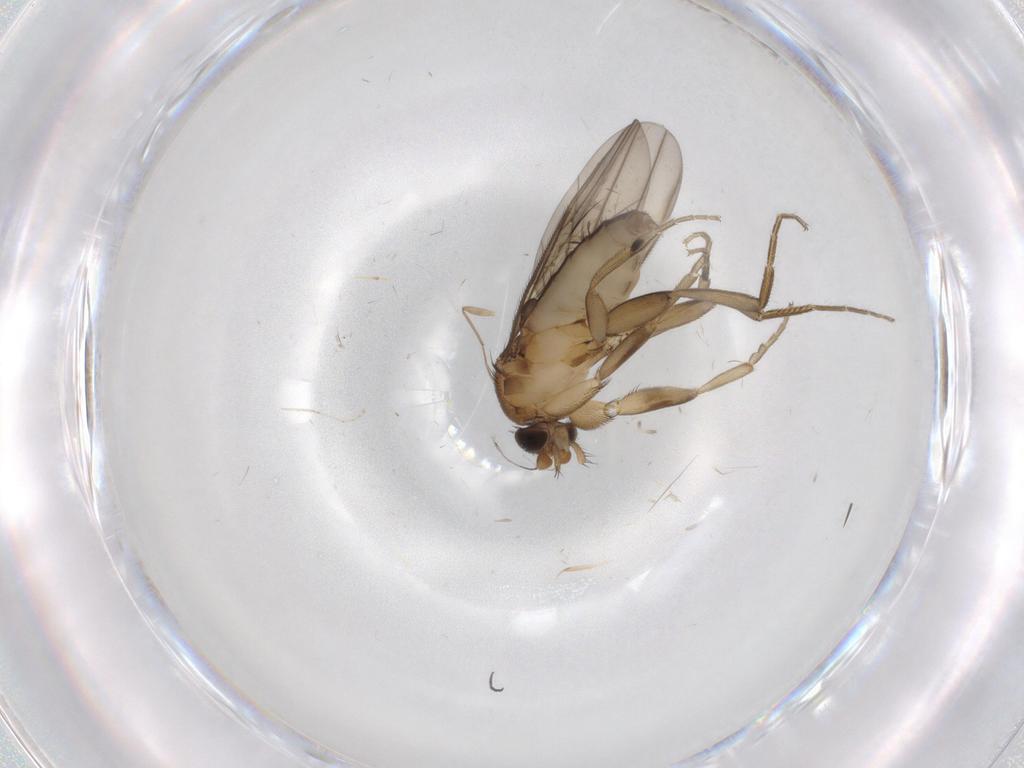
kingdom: Animalia
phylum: Arthropoda
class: Insecta
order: Diptera
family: Phoridae
